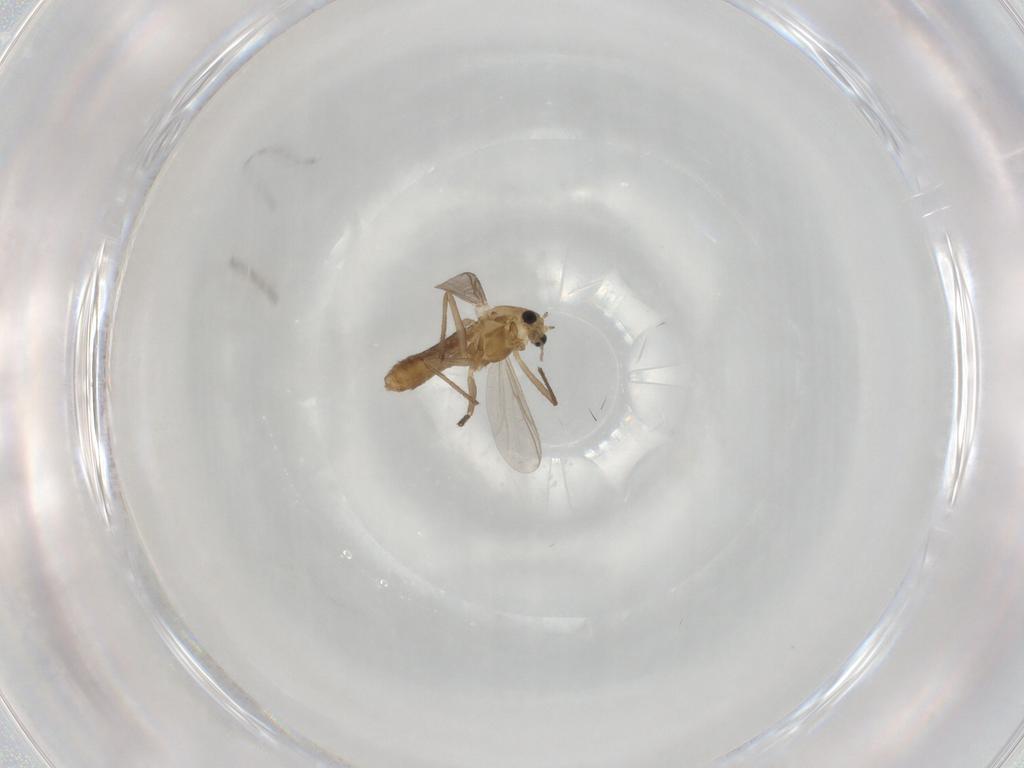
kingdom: Animalia
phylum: Arthropoda
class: Insecta
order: Diptera
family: Chironomidae
